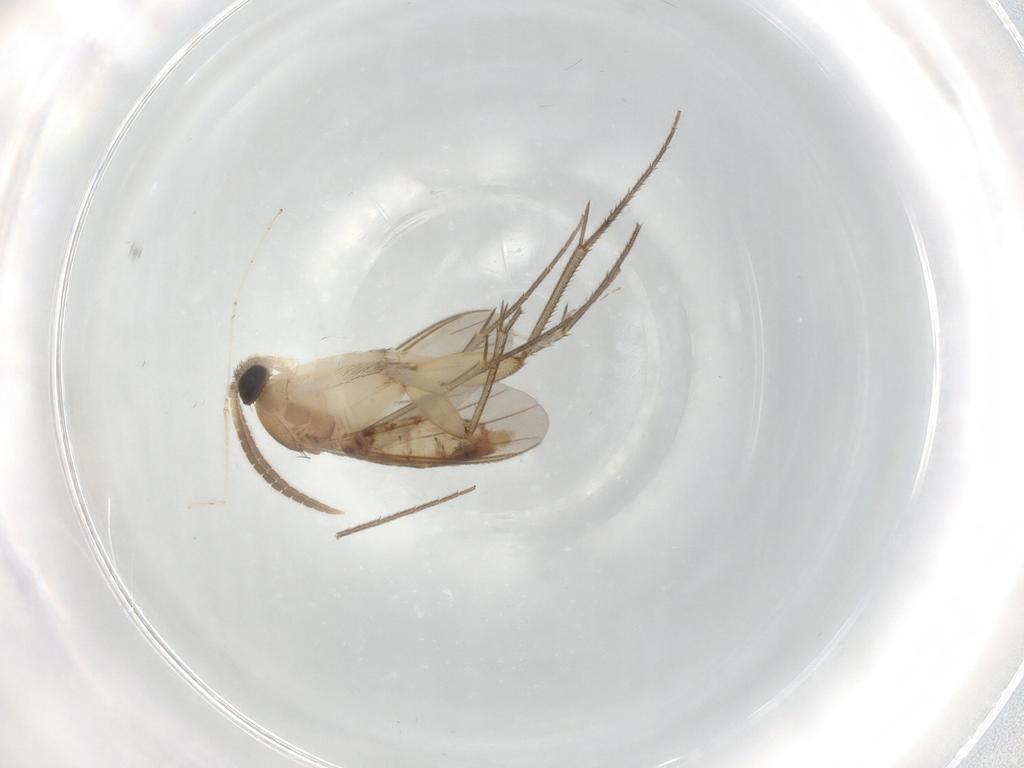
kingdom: Animalia
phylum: Arthropoda
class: Insecta
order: Diptera
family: Mycetophilidae
